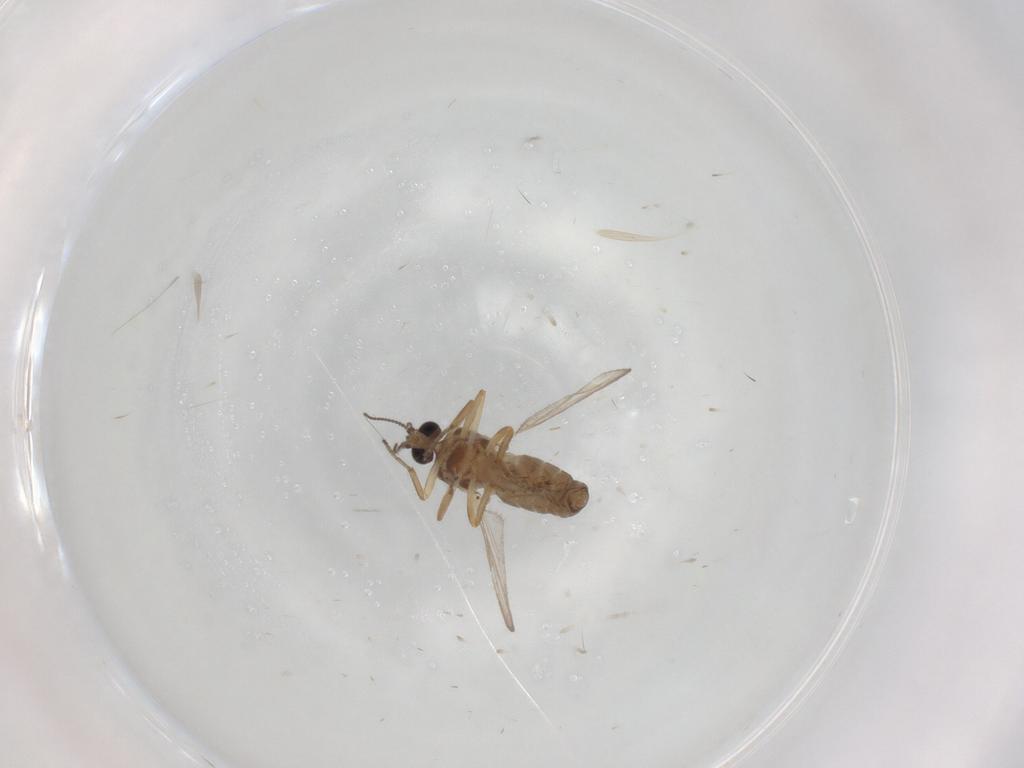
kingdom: Animalia
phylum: Arthropoda
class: Insecta
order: Diptera
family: Ceratopogonidae
